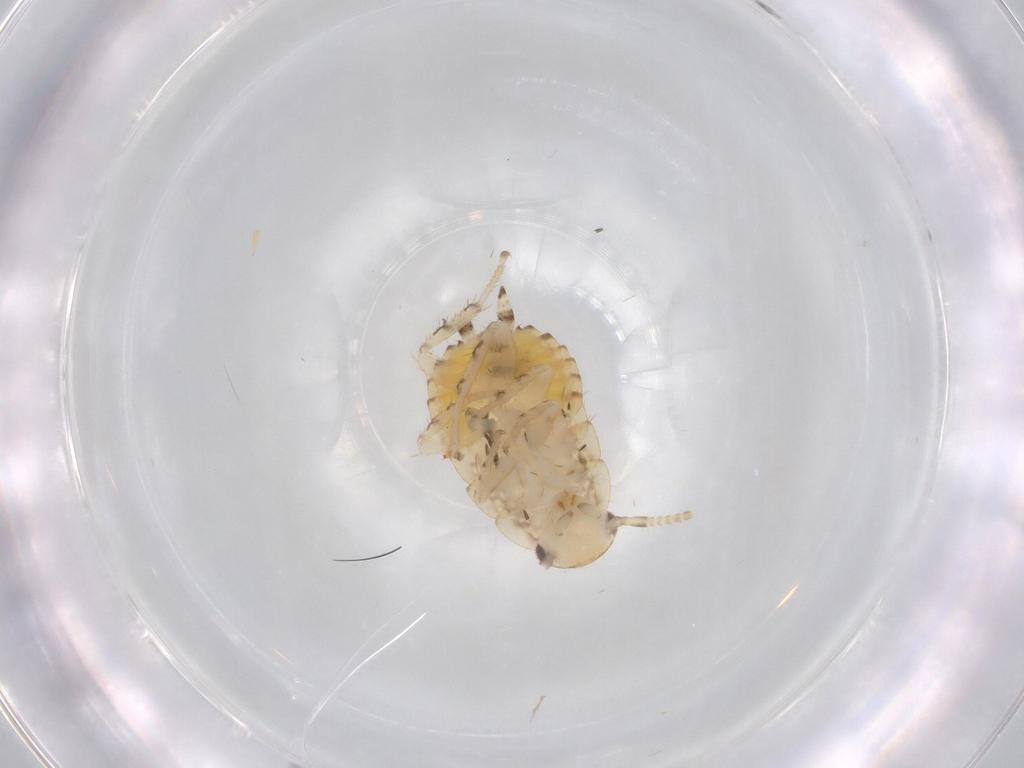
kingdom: Animalia
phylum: Arthropoda
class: Insecta
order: Blattodea
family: Ectobiidae
